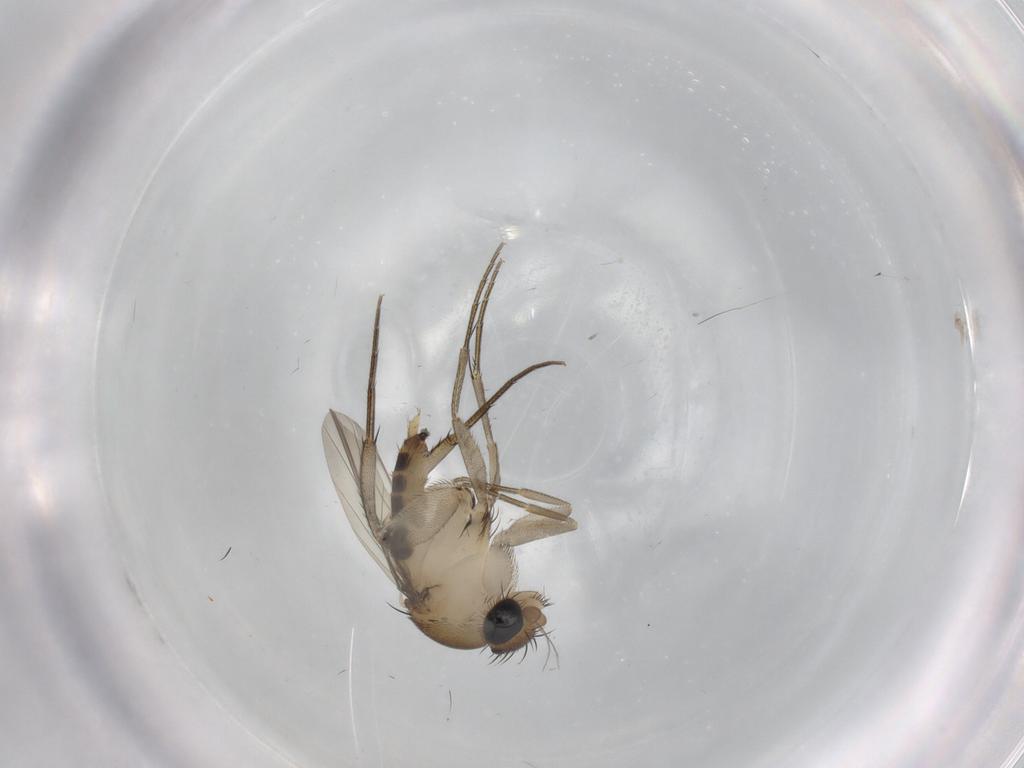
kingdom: Animalia
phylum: Arthropoda
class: Insecta
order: Diptera
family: Phoridae
